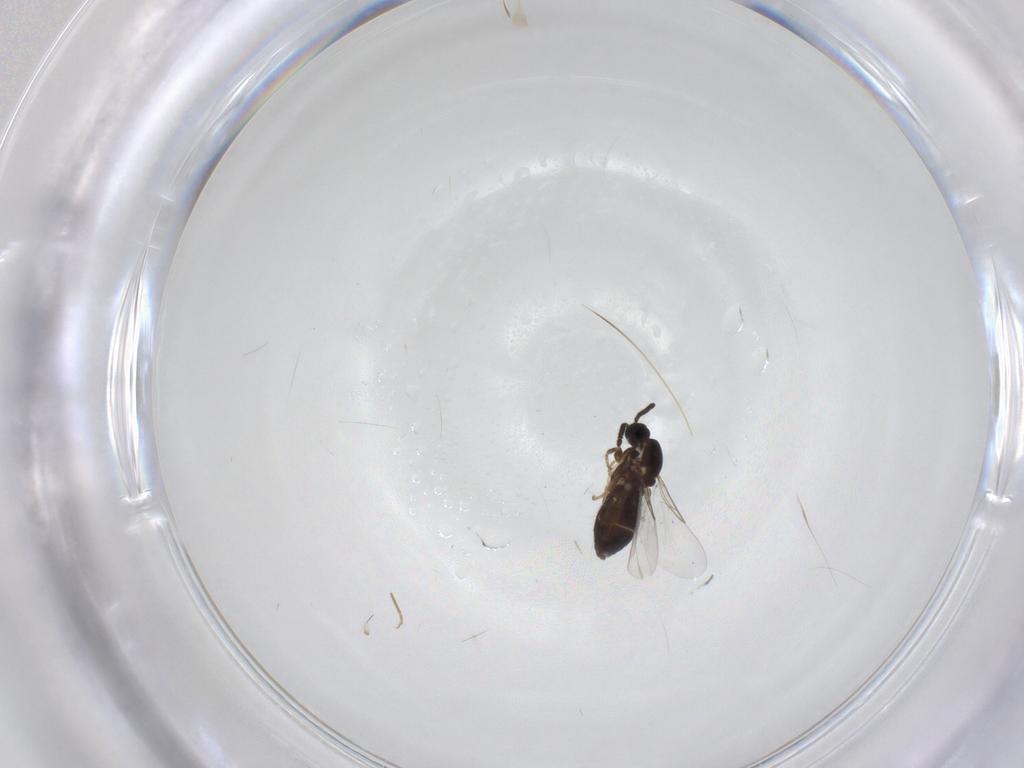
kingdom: Animalia
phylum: Arthropoda
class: Insecta
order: Diptera
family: Scatopsidae
